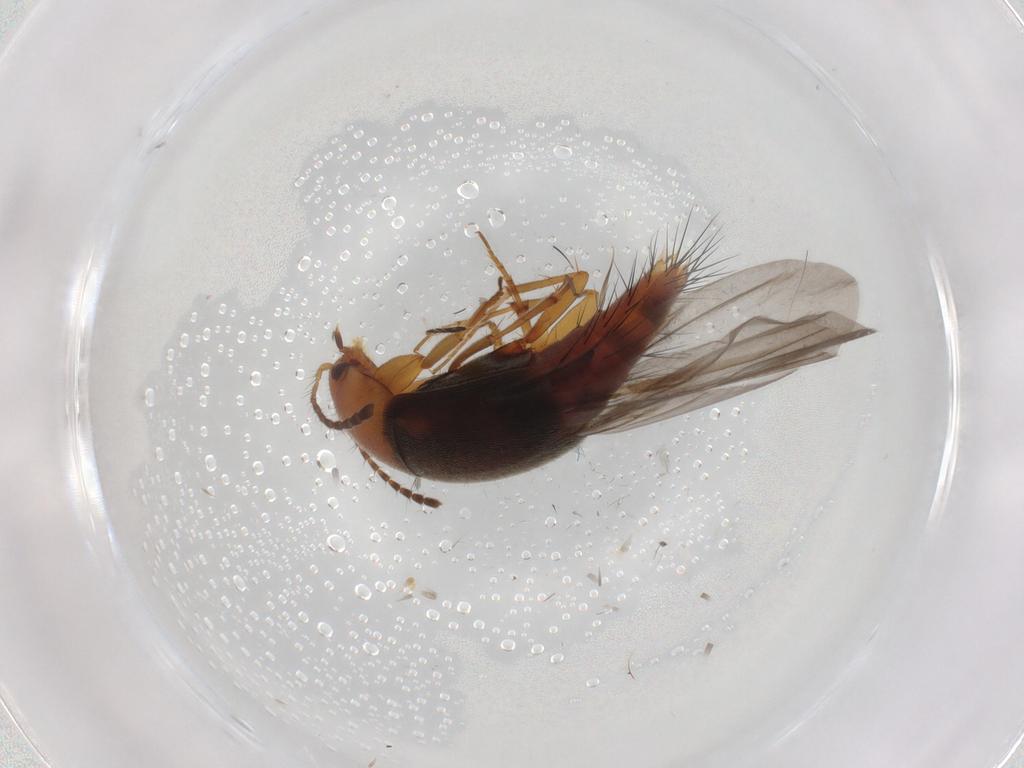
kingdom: Animalia
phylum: Arthropoda
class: Insecta
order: Coleoptera
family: Staphylinidae
